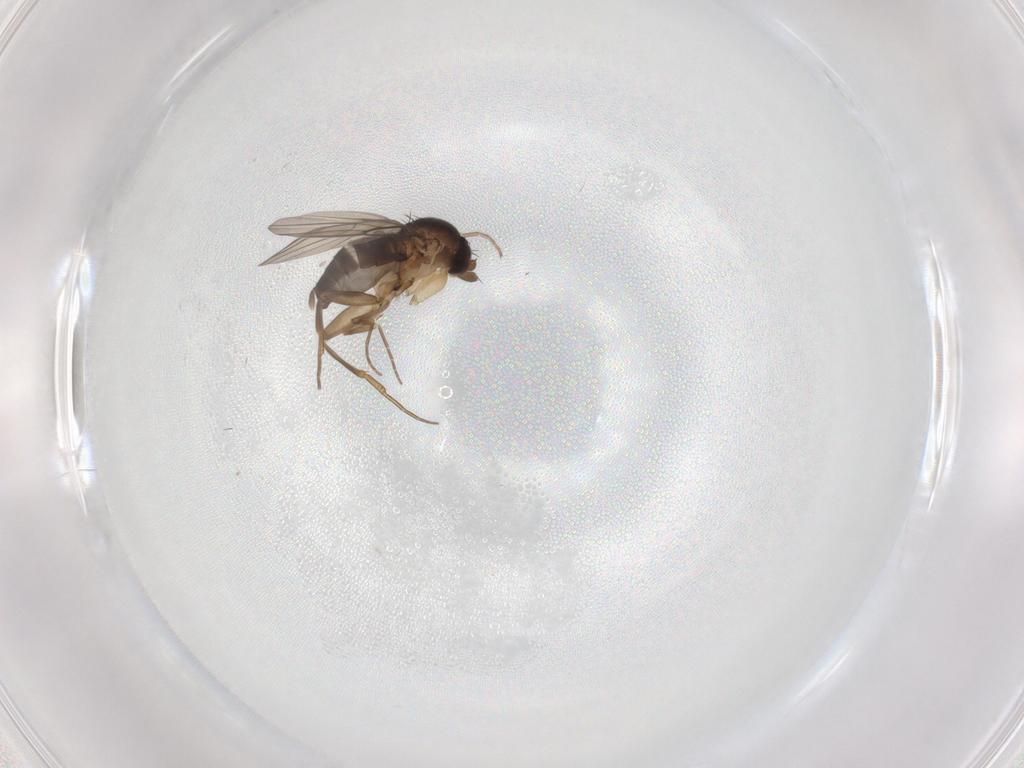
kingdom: Animalia
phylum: Arthropoda
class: Insecta
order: Diptera
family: Phoridae
